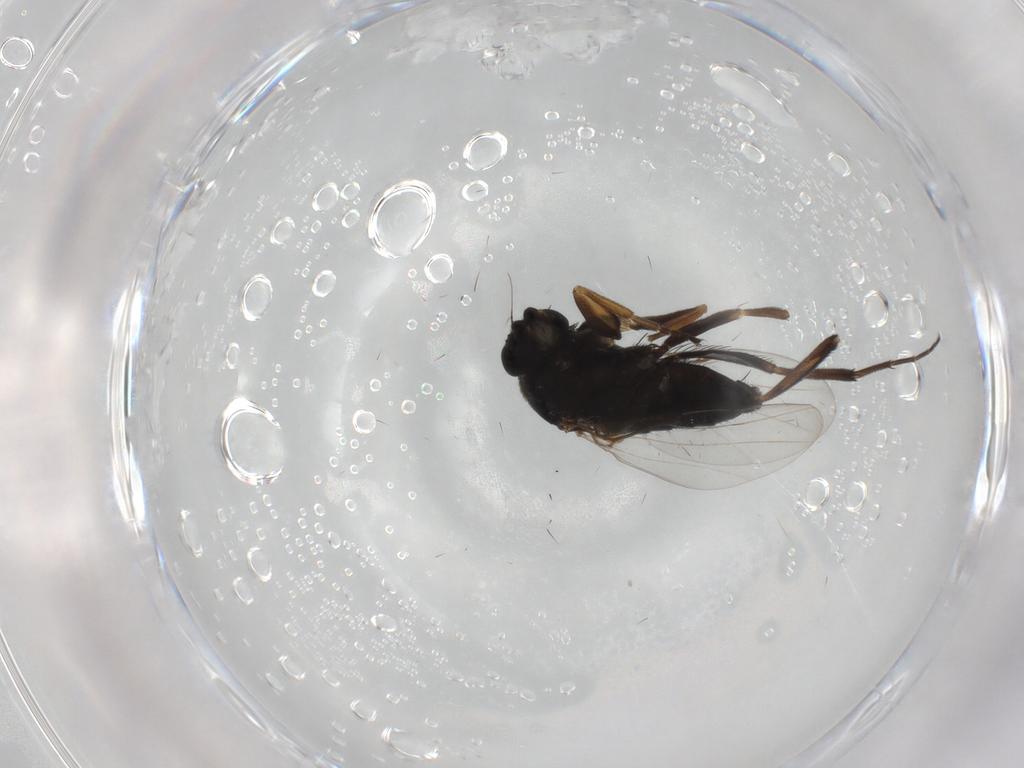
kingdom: Animalia
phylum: Arthropoda
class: Insecta
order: Diptera
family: Phoridae
